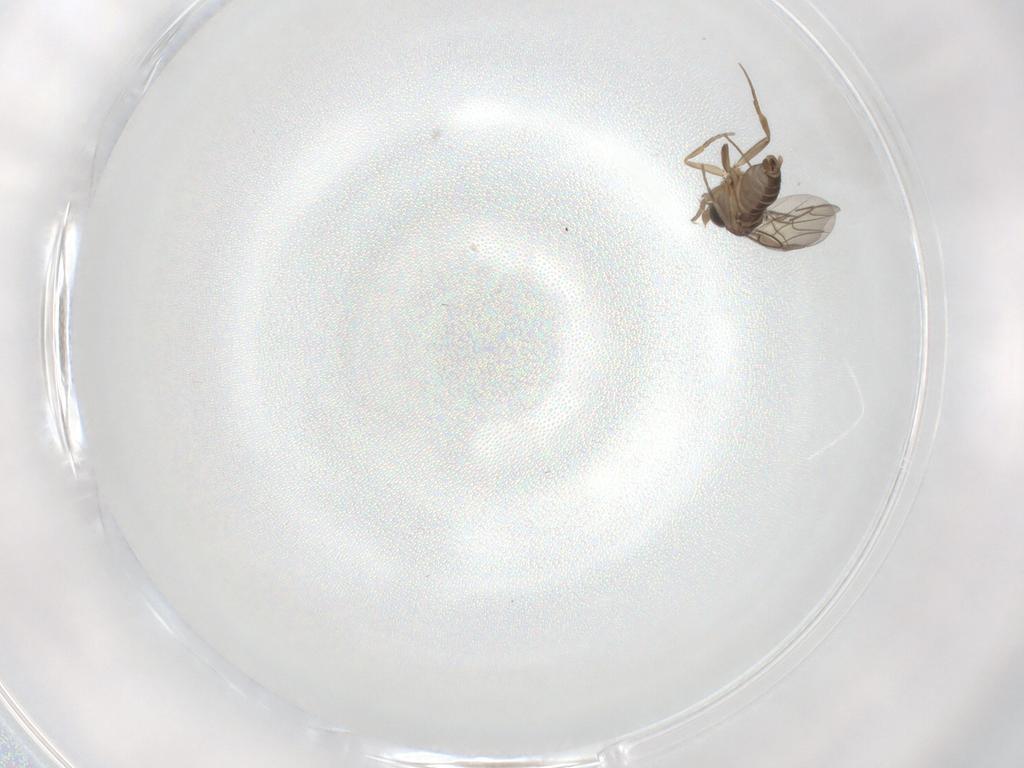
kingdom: Animalia
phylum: Arthropoda
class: Insecta
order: Diptera
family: Phoridae
